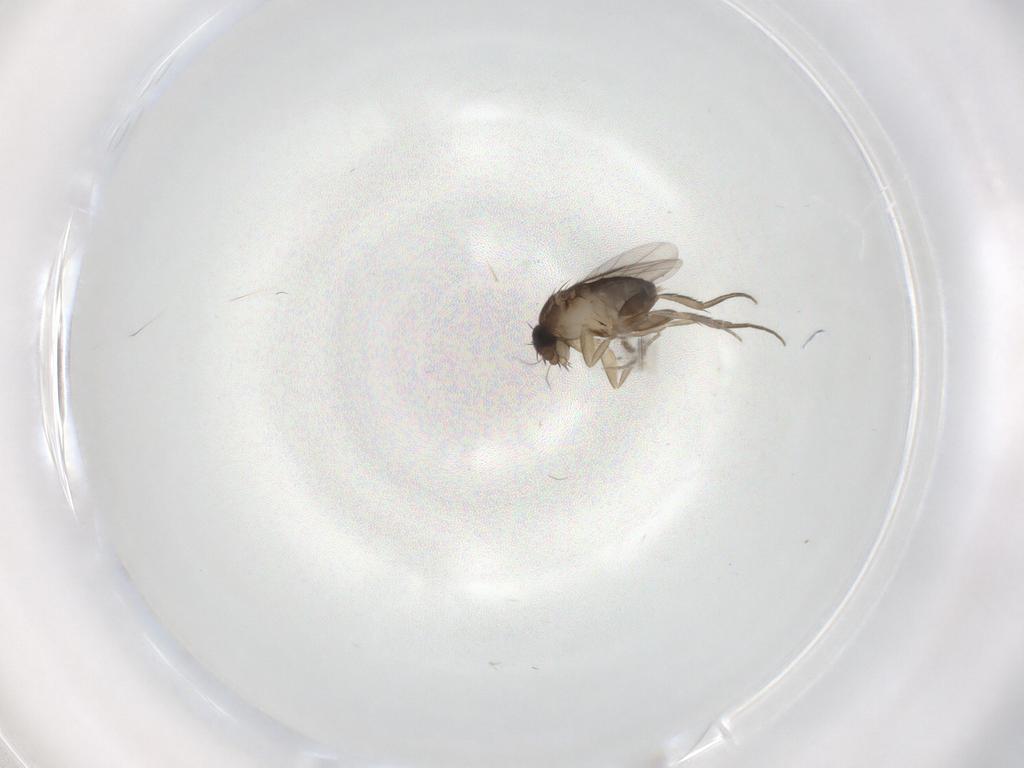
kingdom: Animalia
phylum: Arthropoda
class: Insecta
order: Diptera
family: Phoridae
